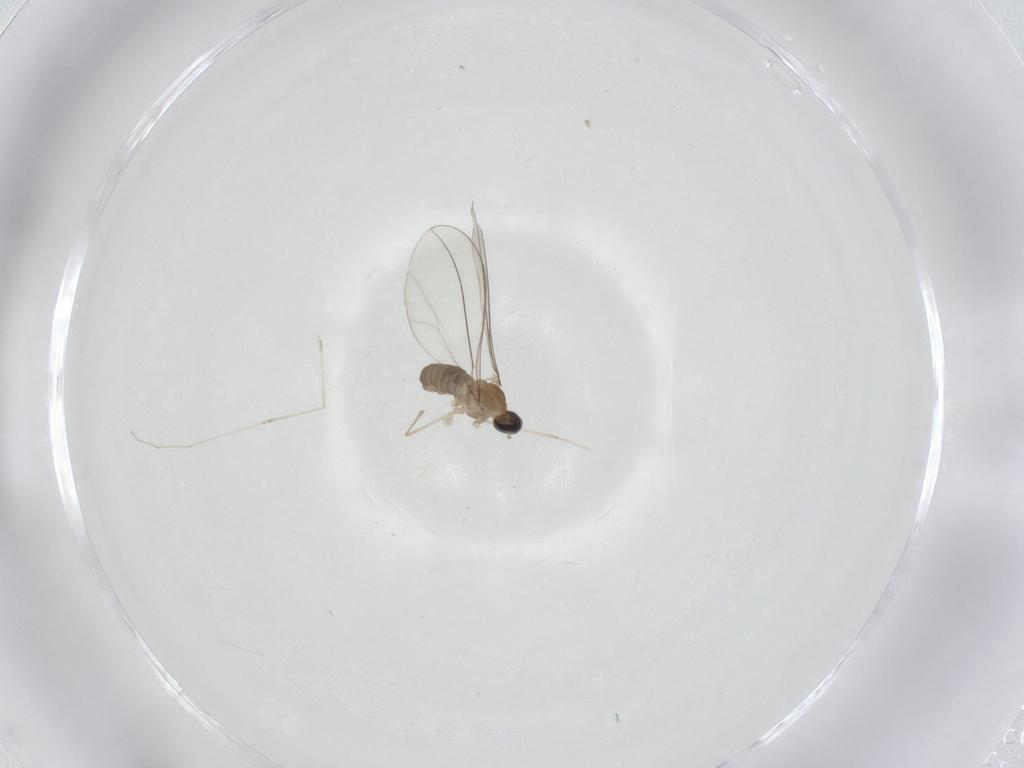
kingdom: Animalia
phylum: Arthropoda
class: Insecta
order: Diptera
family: Cecidomyiidae
